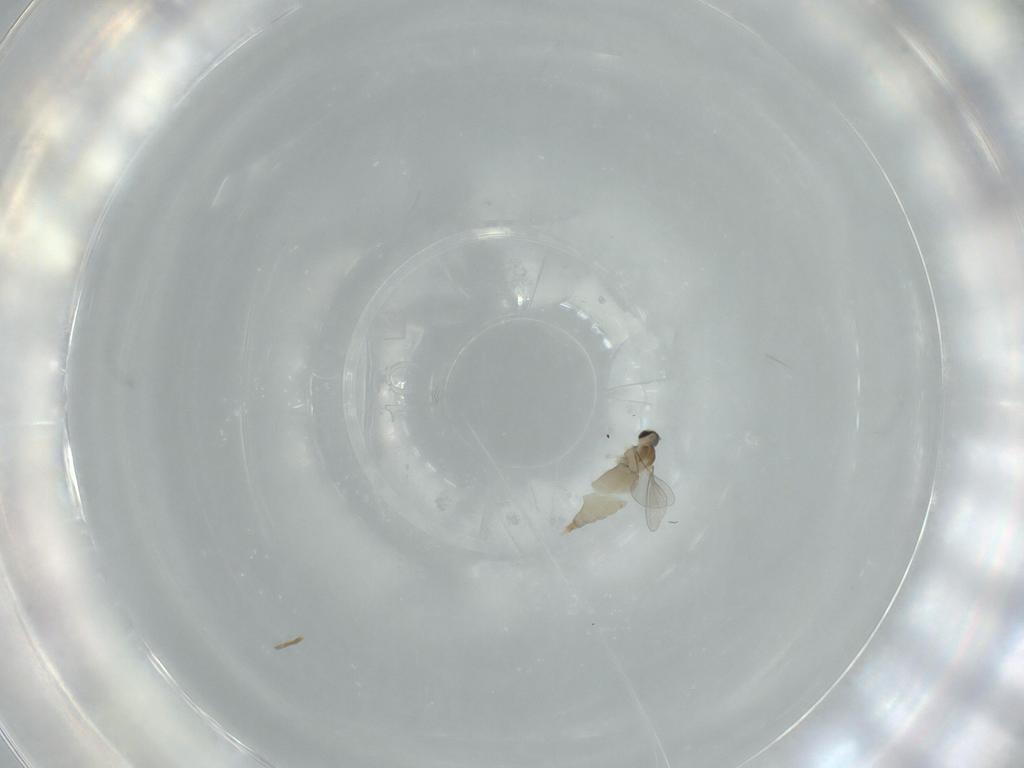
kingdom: Animalia
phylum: Arthropoda
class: Insecta
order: Diptera
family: Milichiidae
